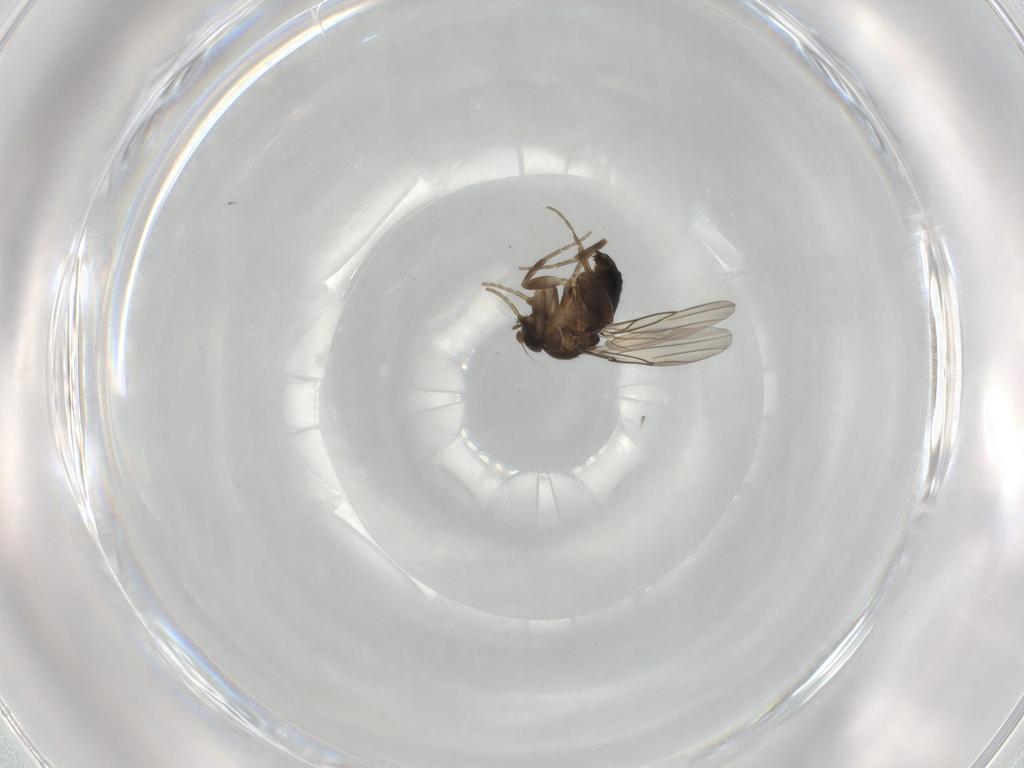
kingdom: Animalia
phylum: Arthropoda
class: Insecta
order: Diptera
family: Phoridae
